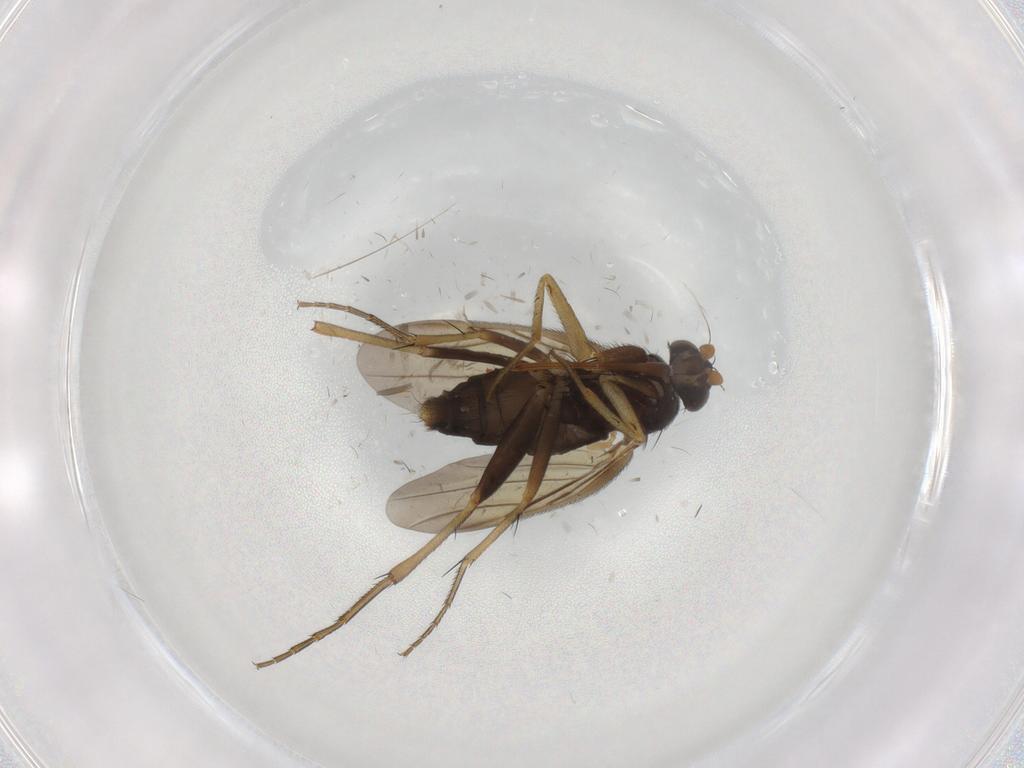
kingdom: Animalia
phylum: Arthropoda
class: Insecta
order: Diptera
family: Phoridae
